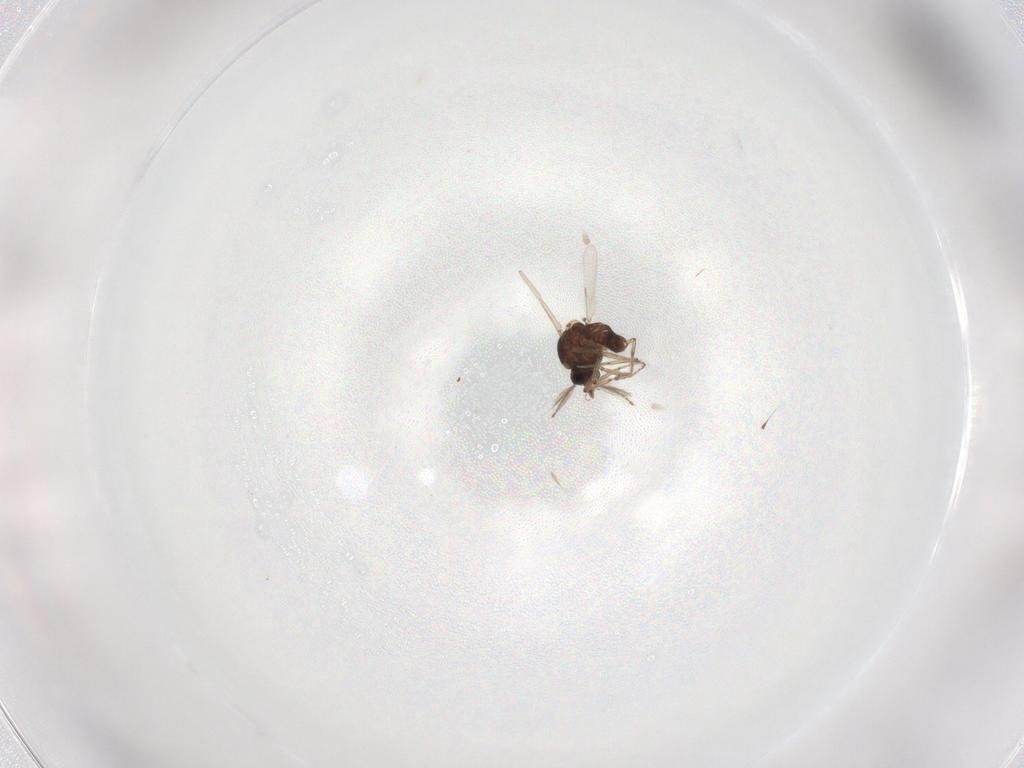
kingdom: Animalia
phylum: Arthropoda
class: Insecta
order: Diptera
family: Ceratopogonidae
